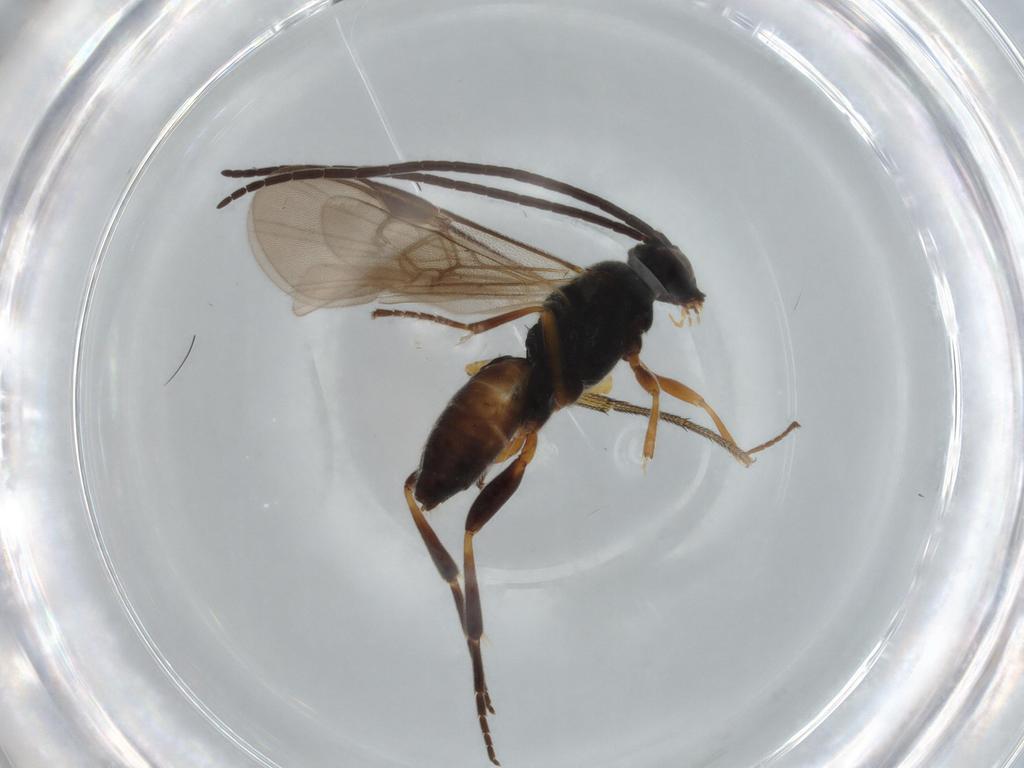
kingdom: Animalia
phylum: Arthropoda
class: Insecta
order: Hymenoptera
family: Braconidae
